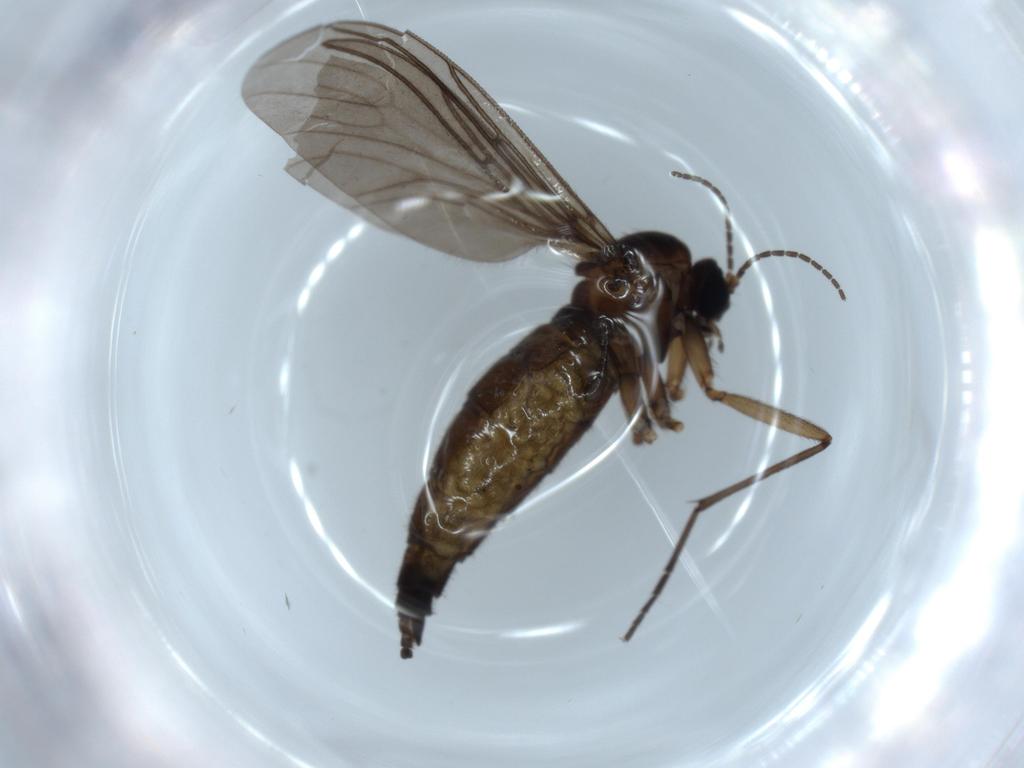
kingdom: Animalia
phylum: Arthropoda
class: Insecta
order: Diptera
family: Sciaridae
